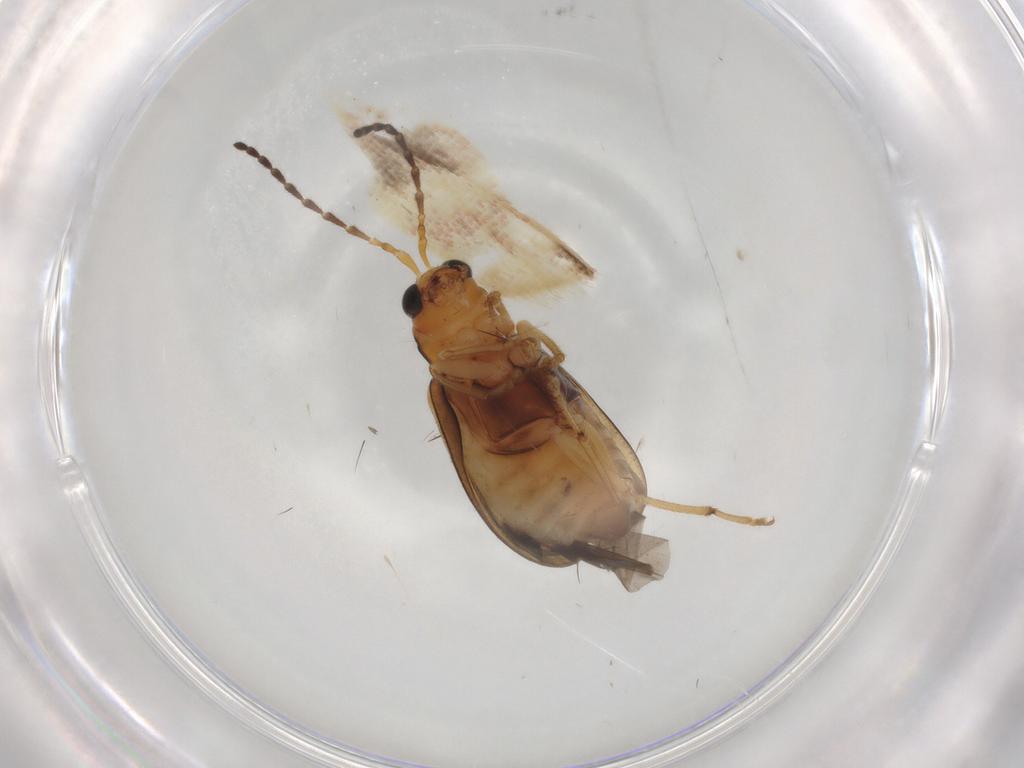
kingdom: Animalia
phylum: Arthropoda
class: Insecta
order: Coleoptera
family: Chrysomelidae
